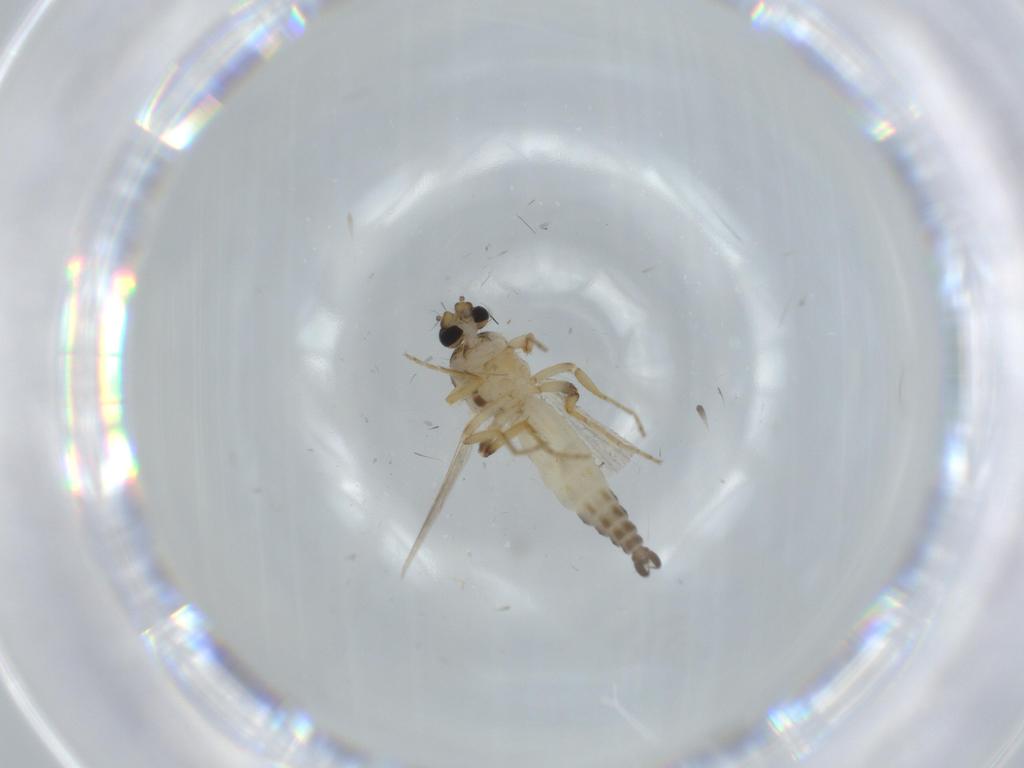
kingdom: Animalia
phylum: Arthropoda
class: Insecta
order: Diptera
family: Ceratopogonidae
